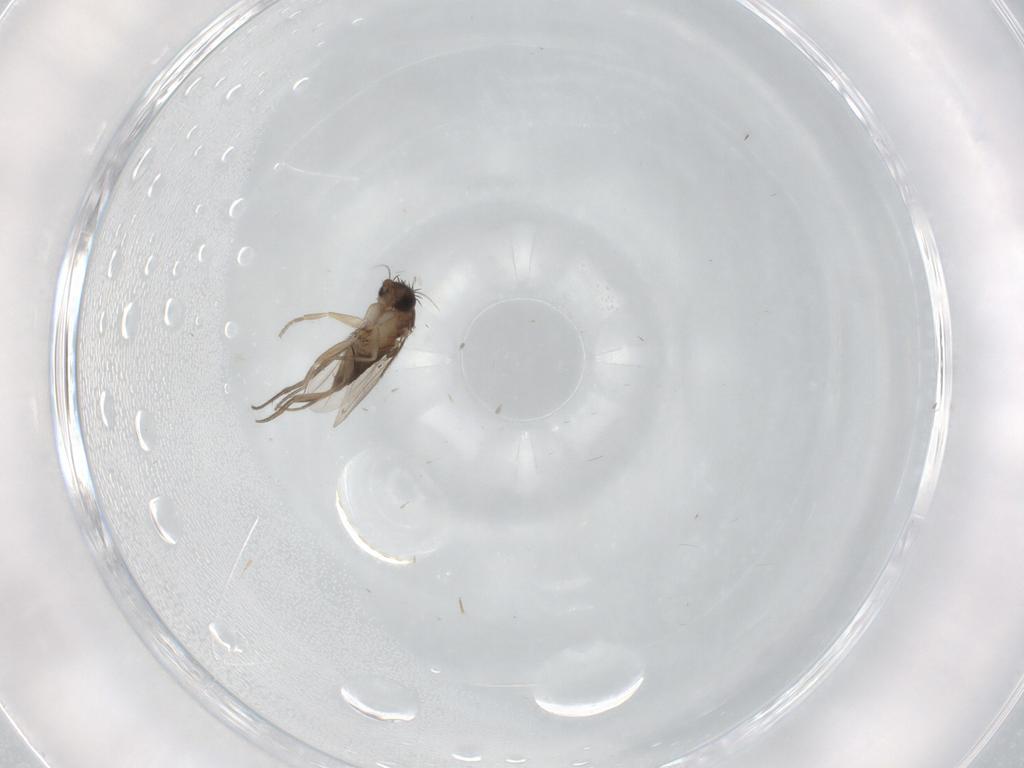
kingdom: Animalia
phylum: Arthropoda
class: Insecta
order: Diptera
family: Phoridae
